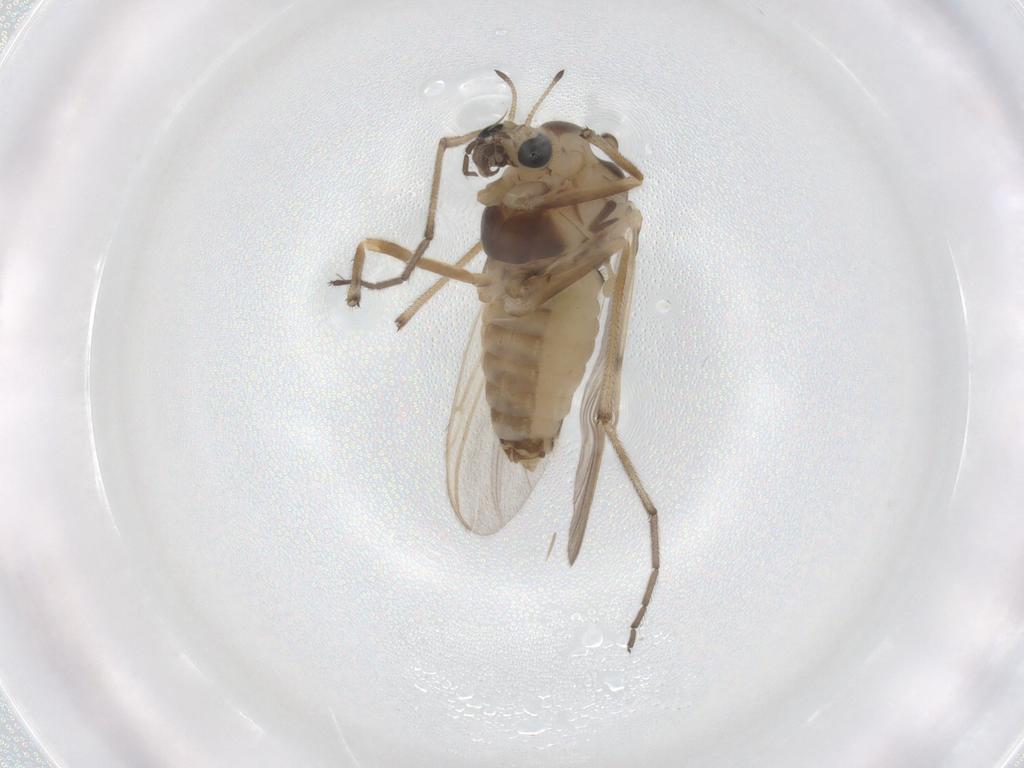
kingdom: Animalia
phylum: Arthropoda
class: Insecta
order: Diptera
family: Chironomidae
